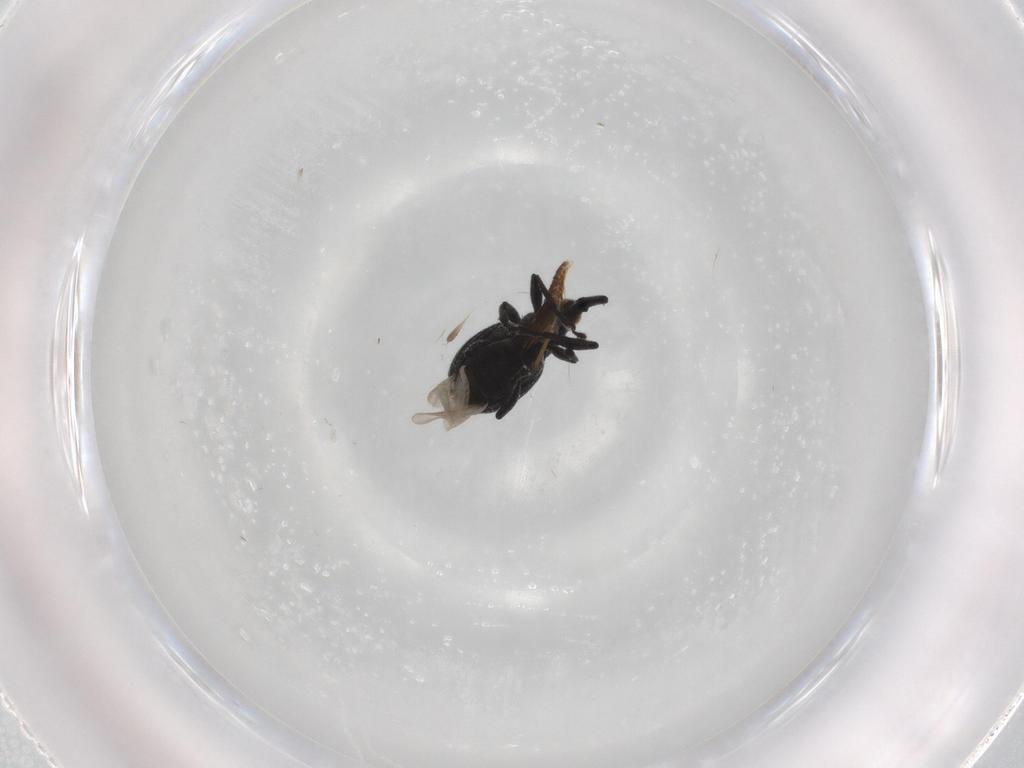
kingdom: Animalia
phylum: Arthropoda
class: Insecta
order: Coleoptera
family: Brentidae
